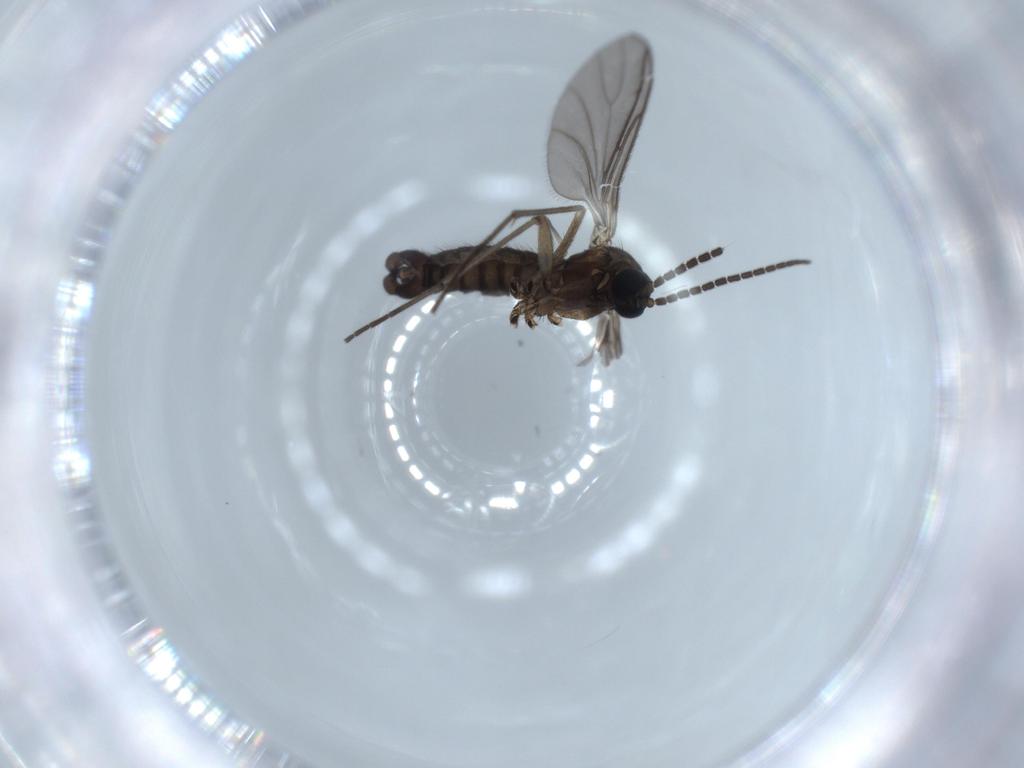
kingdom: Animalia
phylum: Arthropoda
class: Insecta
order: Diptera
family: Sciaridae
